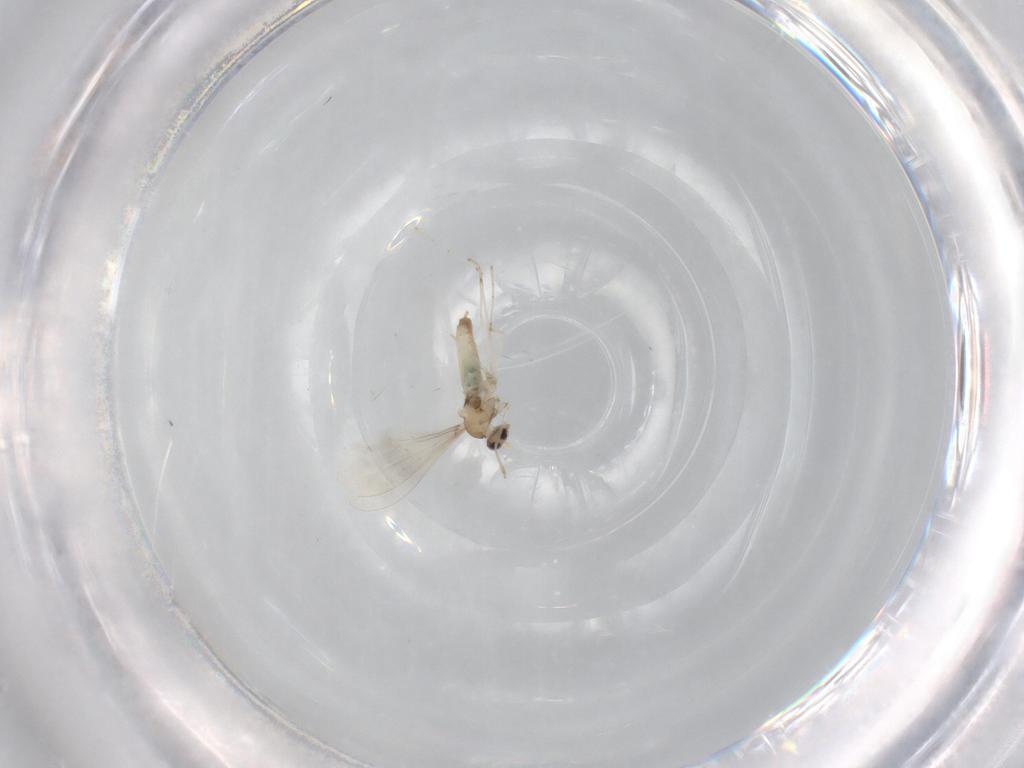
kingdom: Animalia
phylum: Arthropoda
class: Insecta
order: Diptera
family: Cecidomyiidae
